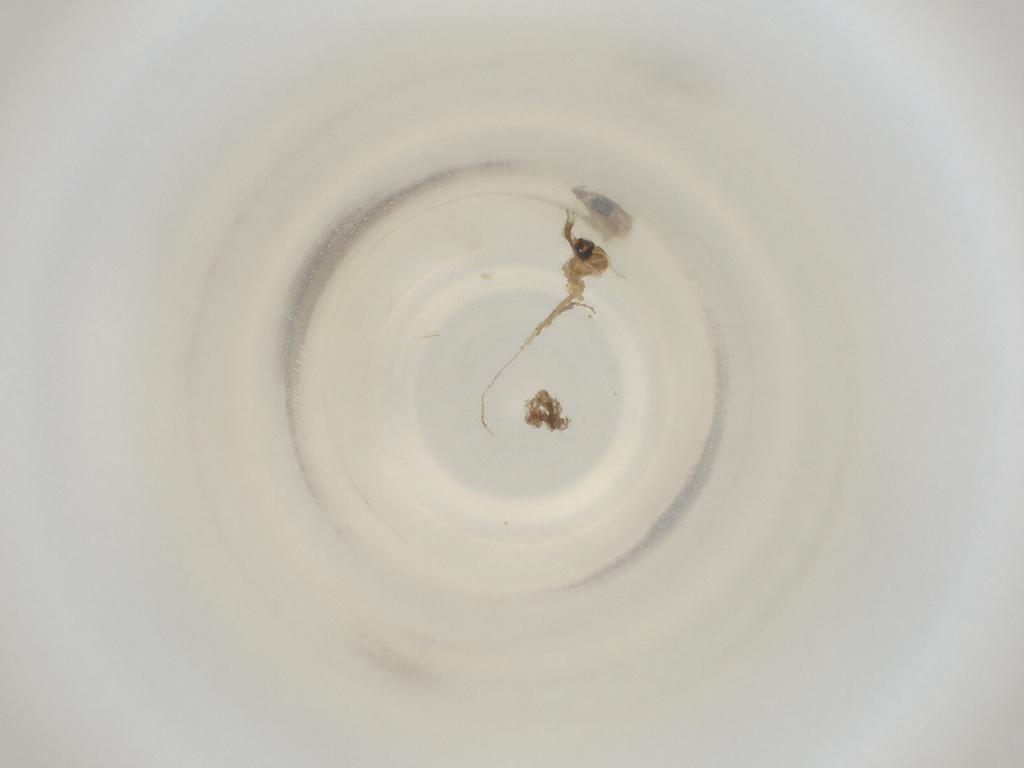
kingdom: Animalia
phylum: Arthropoda
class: Insecta
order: Diptera
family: Cecidomyiidae
